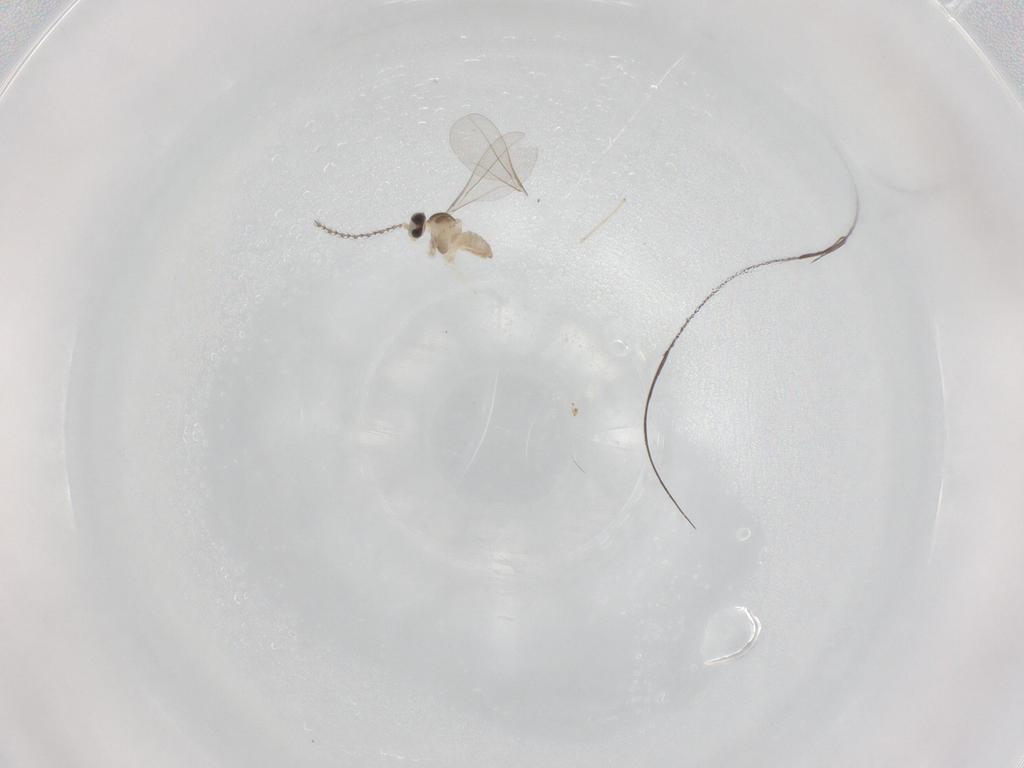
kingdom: Animalia
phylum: Arthropoda
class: Insecta
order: Diptera
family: Cecidomyiidae
